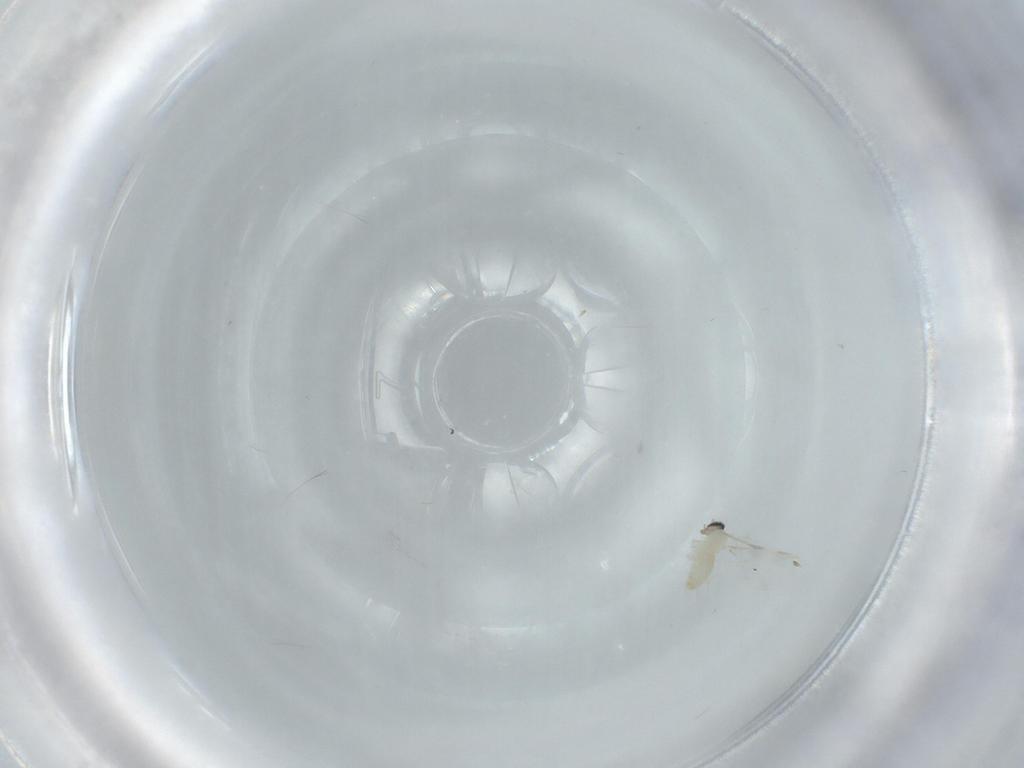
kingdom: Animalia
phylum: Arthropoda
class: Insecta
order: Diptera
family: Cecidomyiidae
